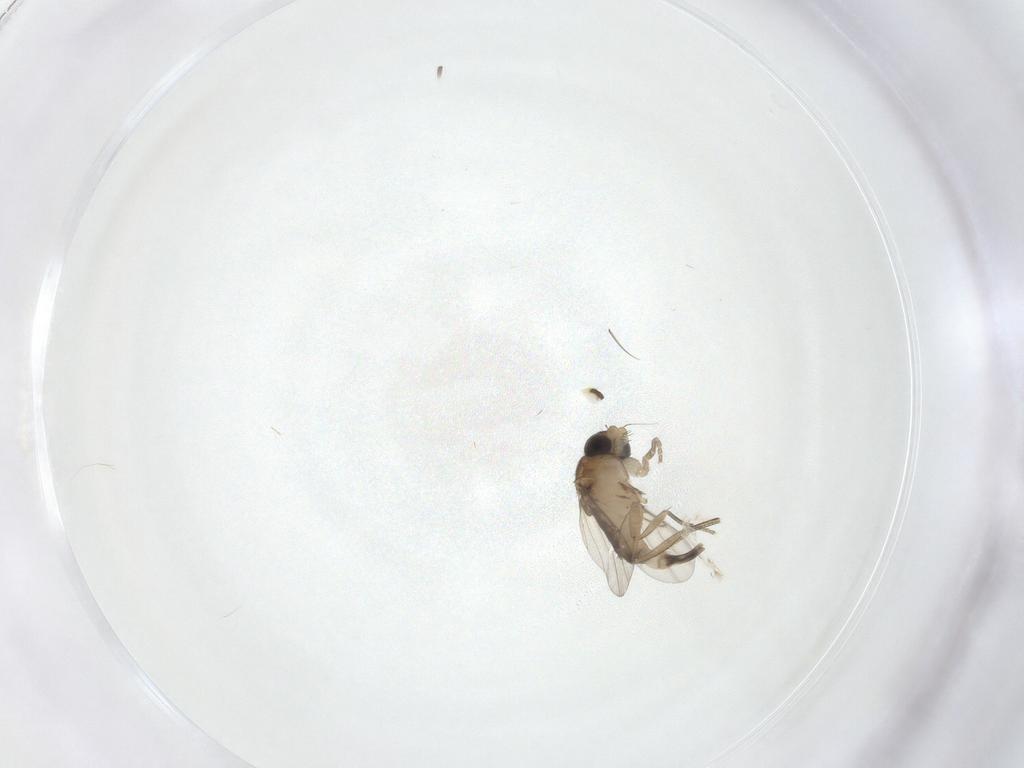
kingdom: Animalia
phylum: Arthropoda
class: Insecta
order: Diptera
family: Phoridae
